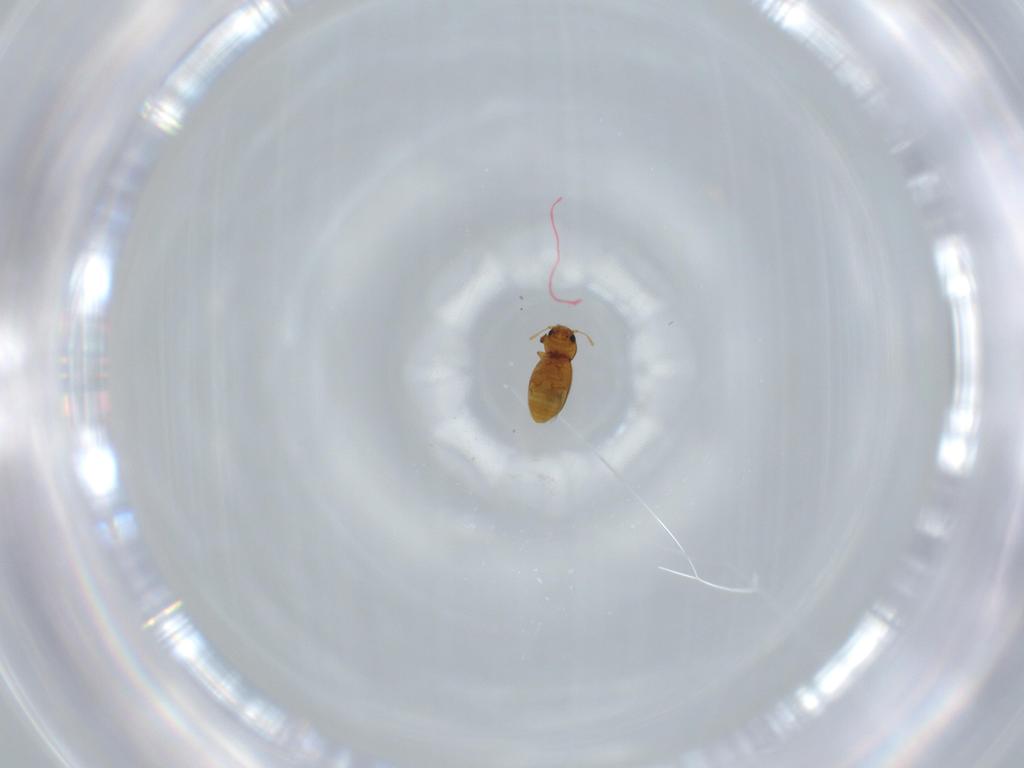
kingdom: Animalia
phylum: Arthropoda
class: Insecta
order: Coleoptera
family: Ptiliidae
